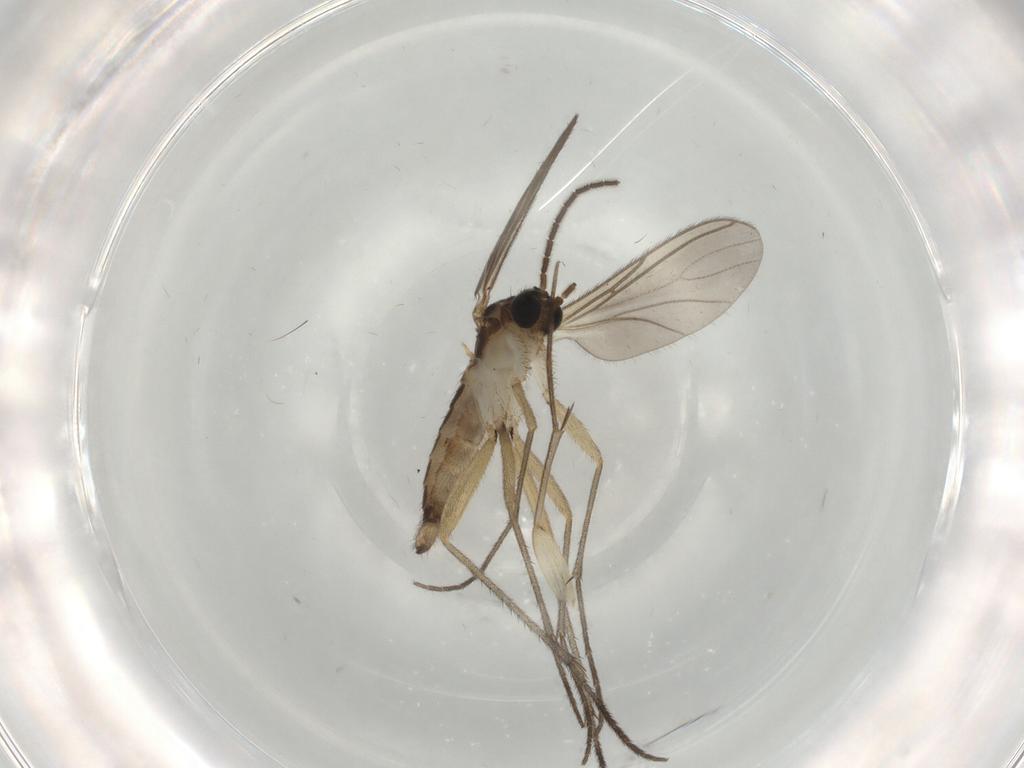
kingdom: Animalia
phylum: Arthropoda
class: Insecta
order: Diptera
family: Sciaridae
